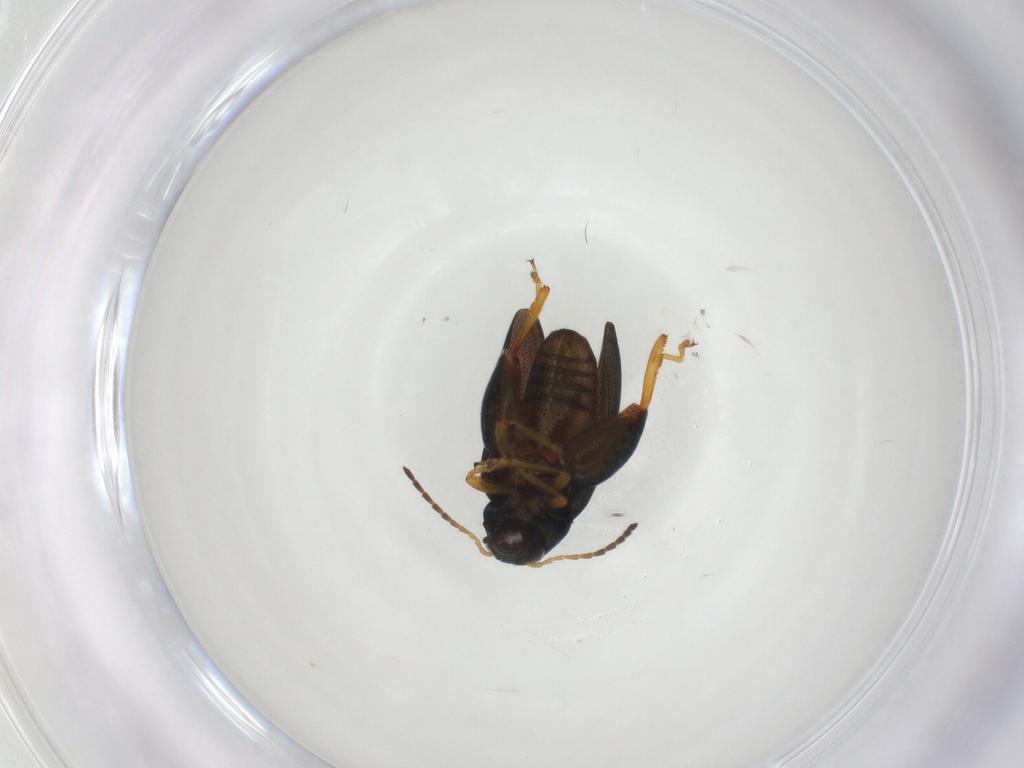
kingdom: Animalia
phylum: Arthropoda
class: Insecta
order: Coleoptera
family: Chrysomelidae
